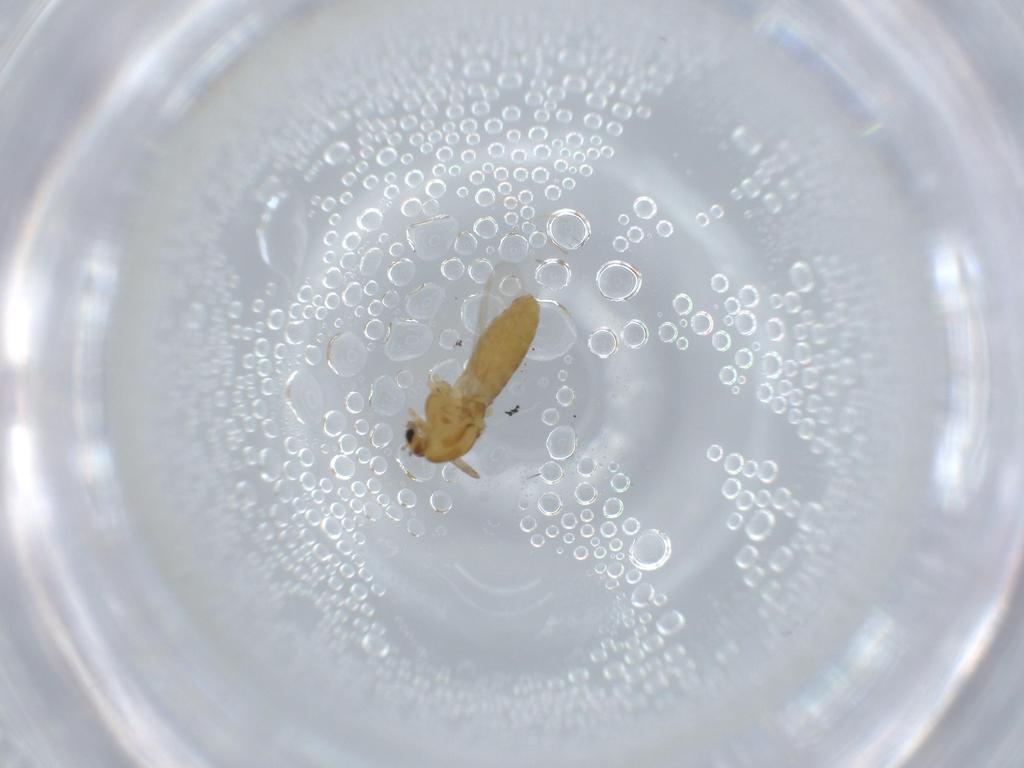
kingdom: Animalia
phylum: Arthropoda
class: Insecta
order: Diptera
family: Chironomidae
